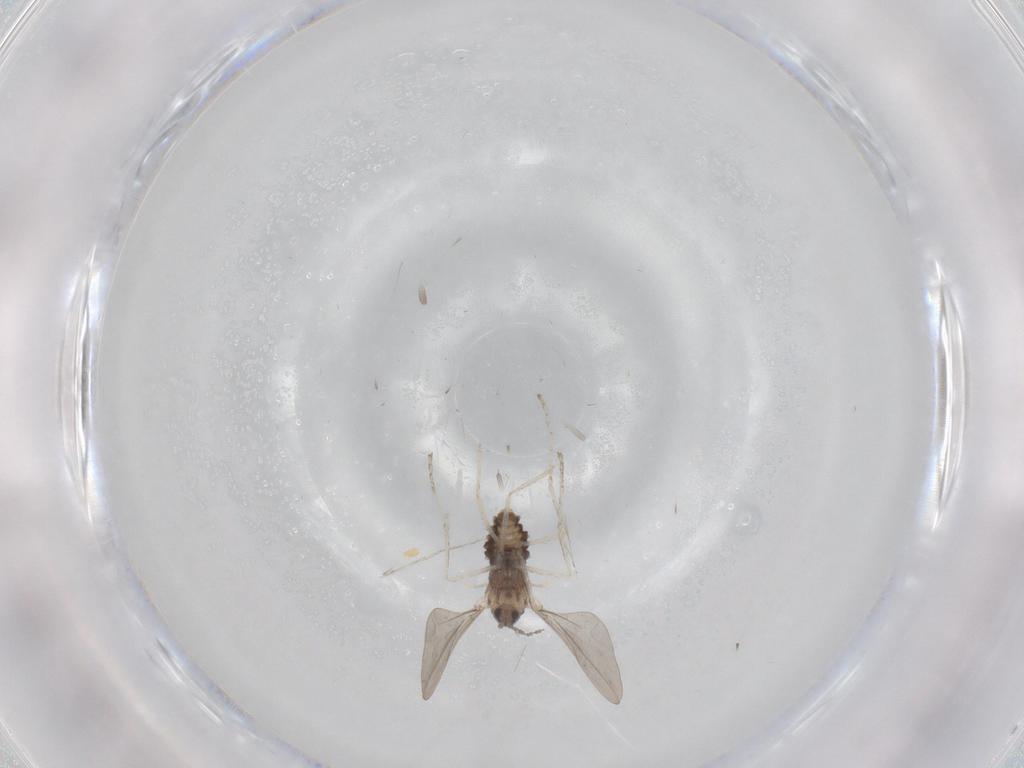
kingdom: Animalia
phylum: Arthropoda
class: Insecta
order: Diptera
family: Cecidomyiidae
